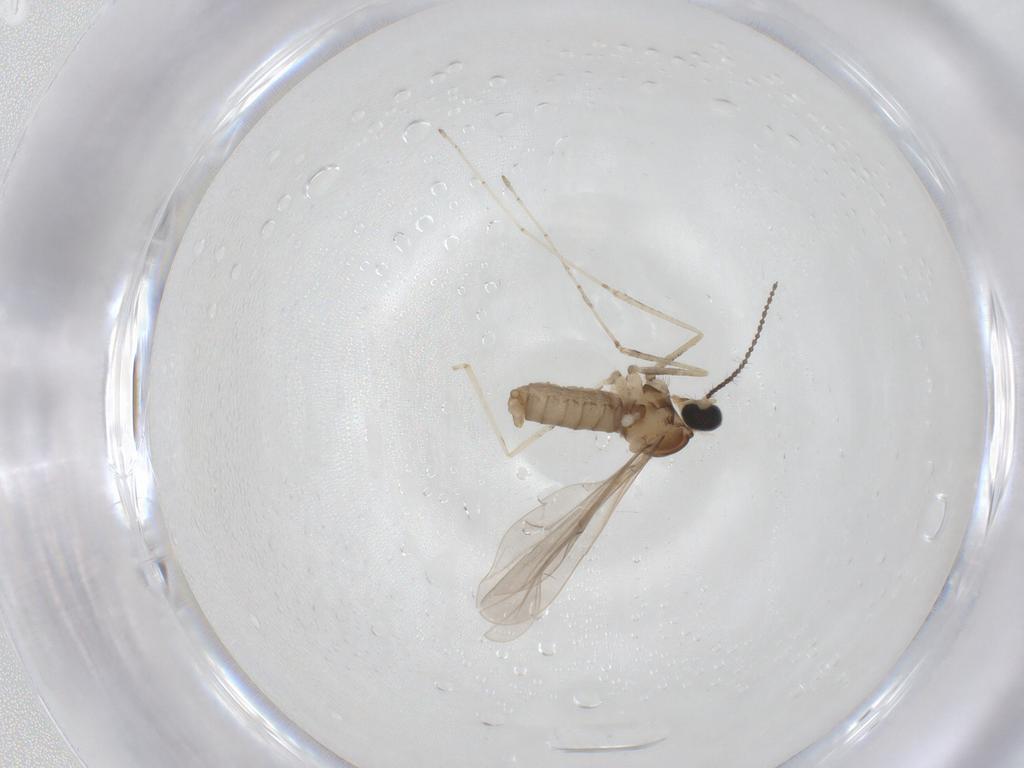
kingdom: Animalia
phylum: Arthropoda
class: Insecta
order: Diptera
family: Cecidomyiidae
